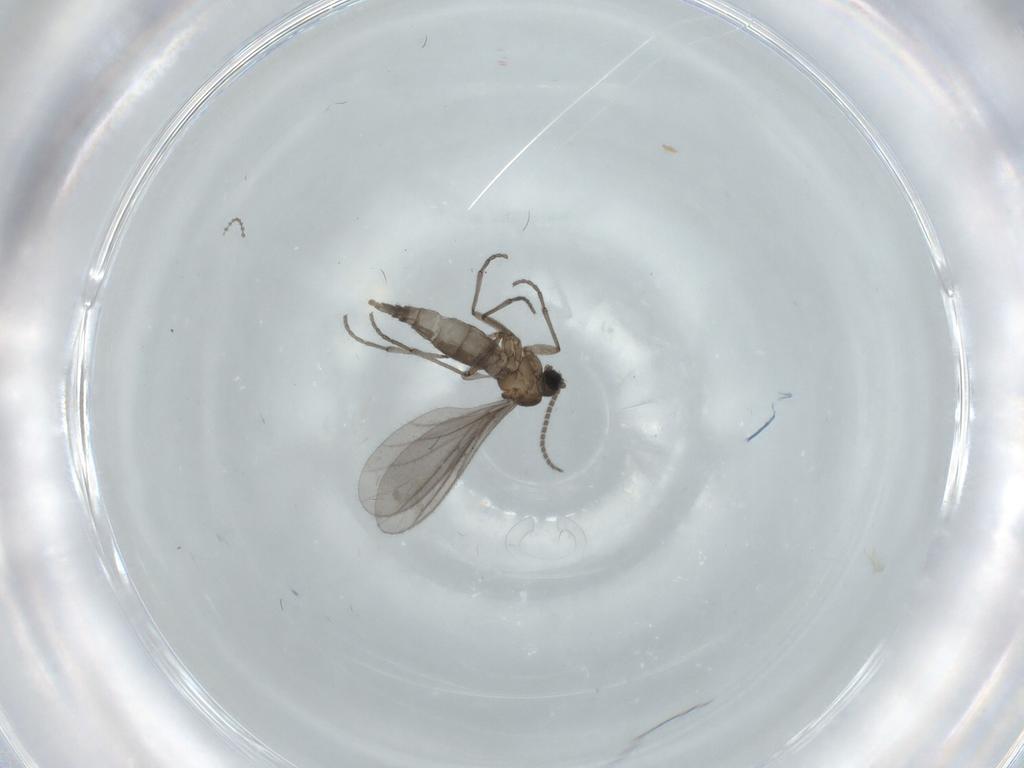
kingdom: Animalia
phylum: Arthropoda
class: Insecta
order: Diptera
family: Sciaridae
